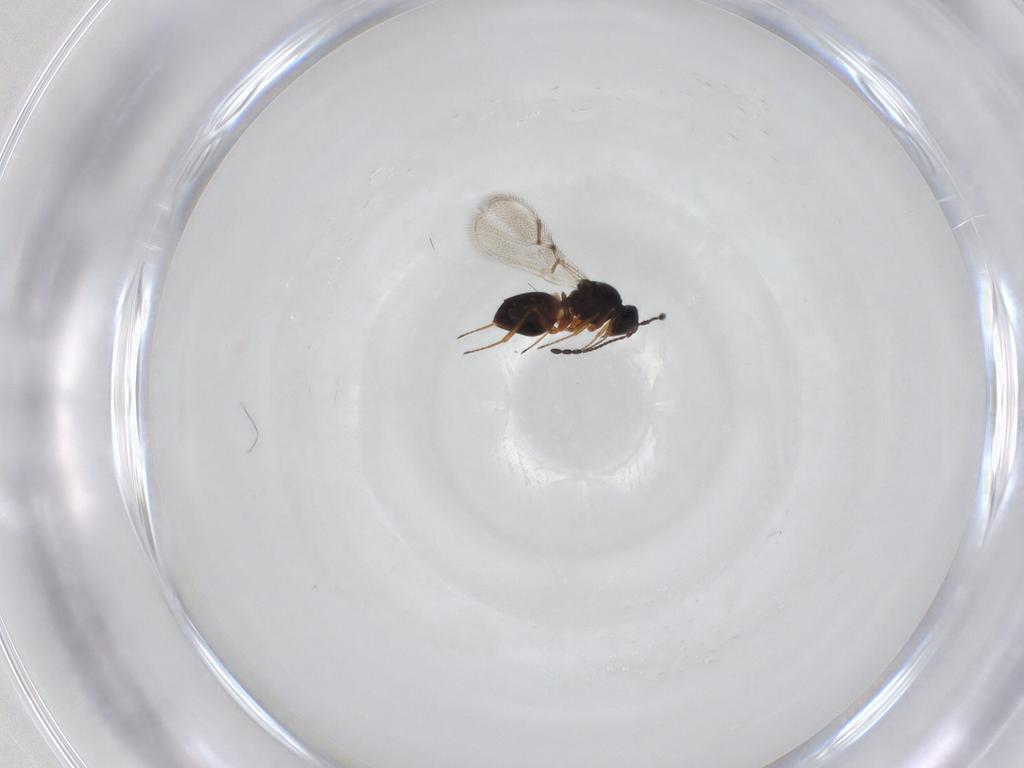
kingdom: Animalia
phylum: Arthropoda
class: Insecta
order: Hymenoptera
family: Figitidae
